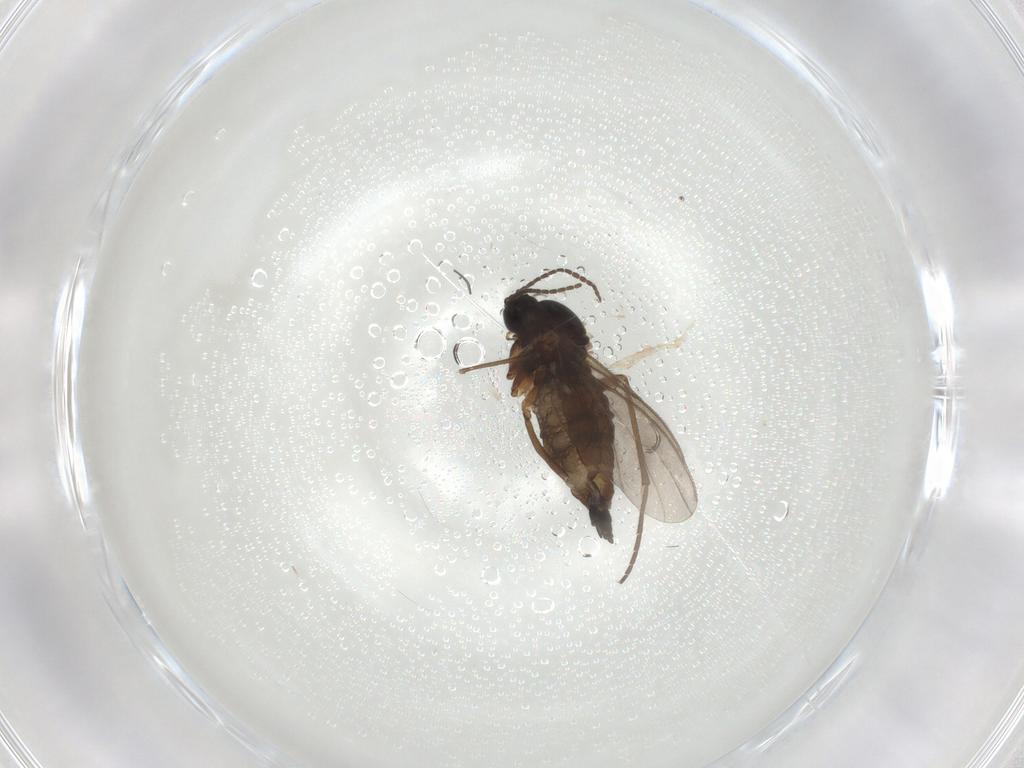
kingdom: Animalia
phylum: Arthropoda
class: Insecta
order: Diptera
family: Sciaridae
